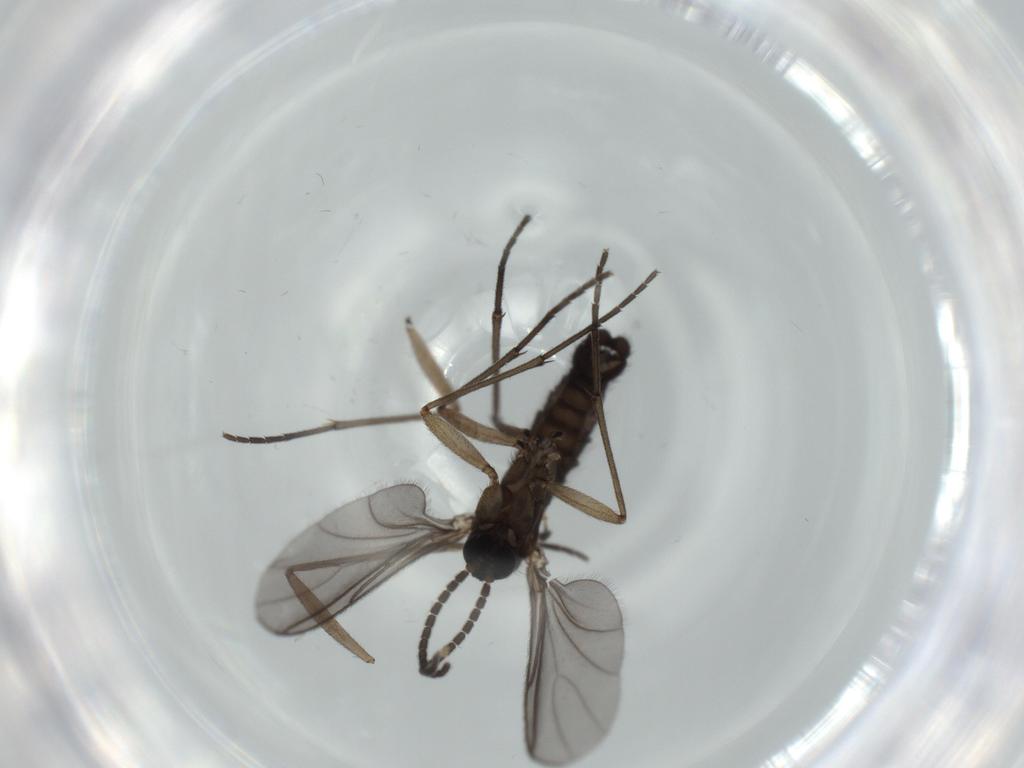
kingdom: Animalia
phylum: Arthropoda
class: Insecta
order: Diptera
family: Sciaridae
